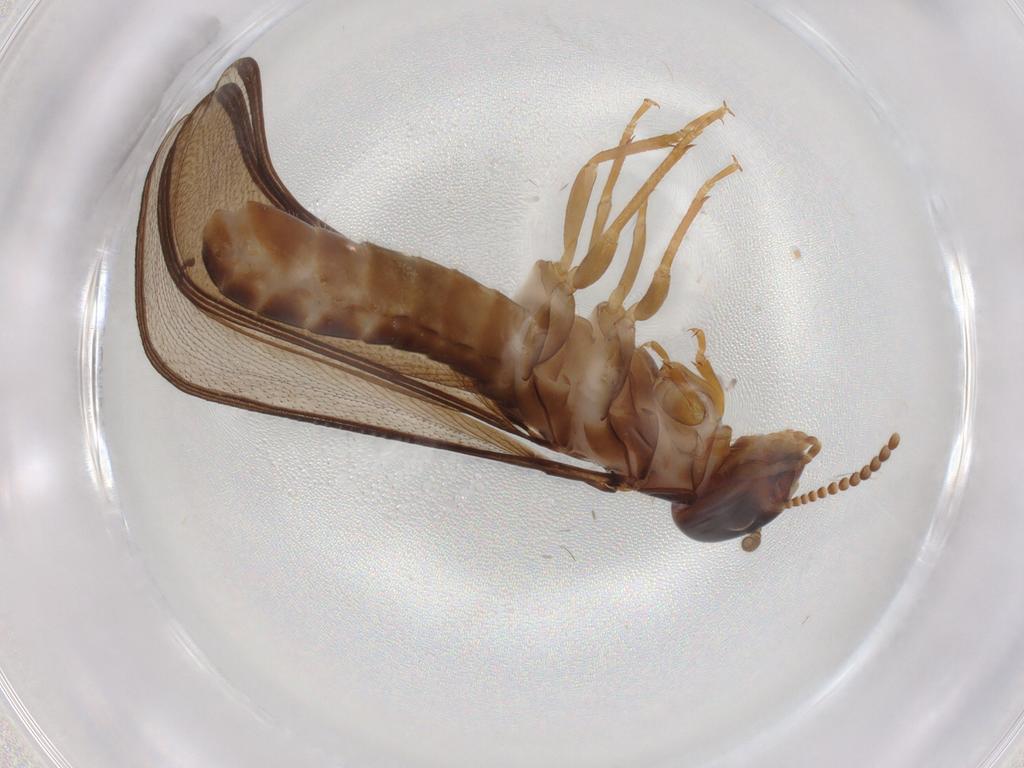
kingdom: Animalia
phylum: Arthropoda
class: Insecta
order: Blattodea
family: Kalotermitidae
